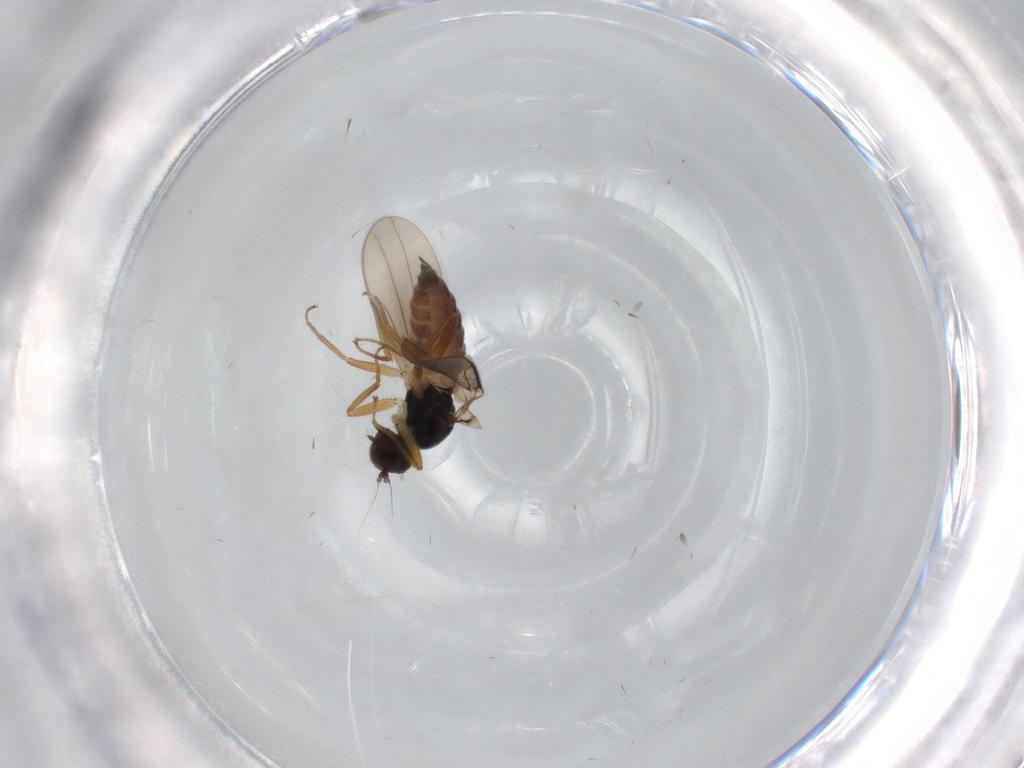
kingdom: Animalia
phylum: Arthropoda
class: Insecta
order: Diptera
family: Hybotidae
